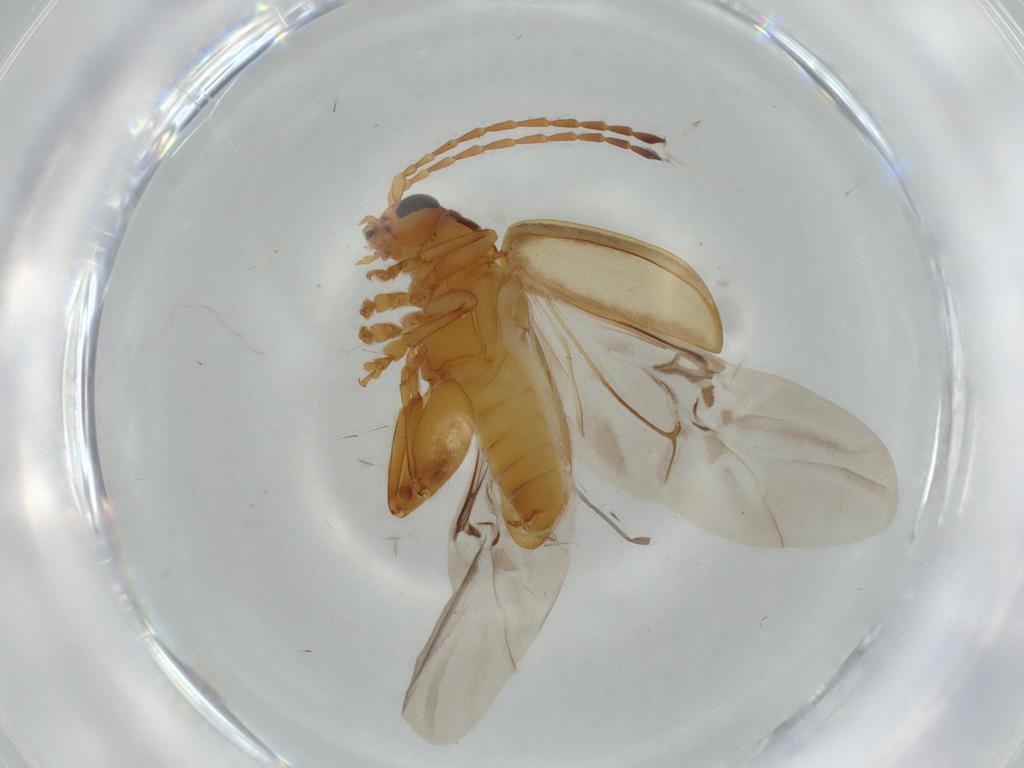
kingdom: Animalia
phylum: Arthropoda
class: Insecta
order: Coleoptera
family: Chrysomelidae
